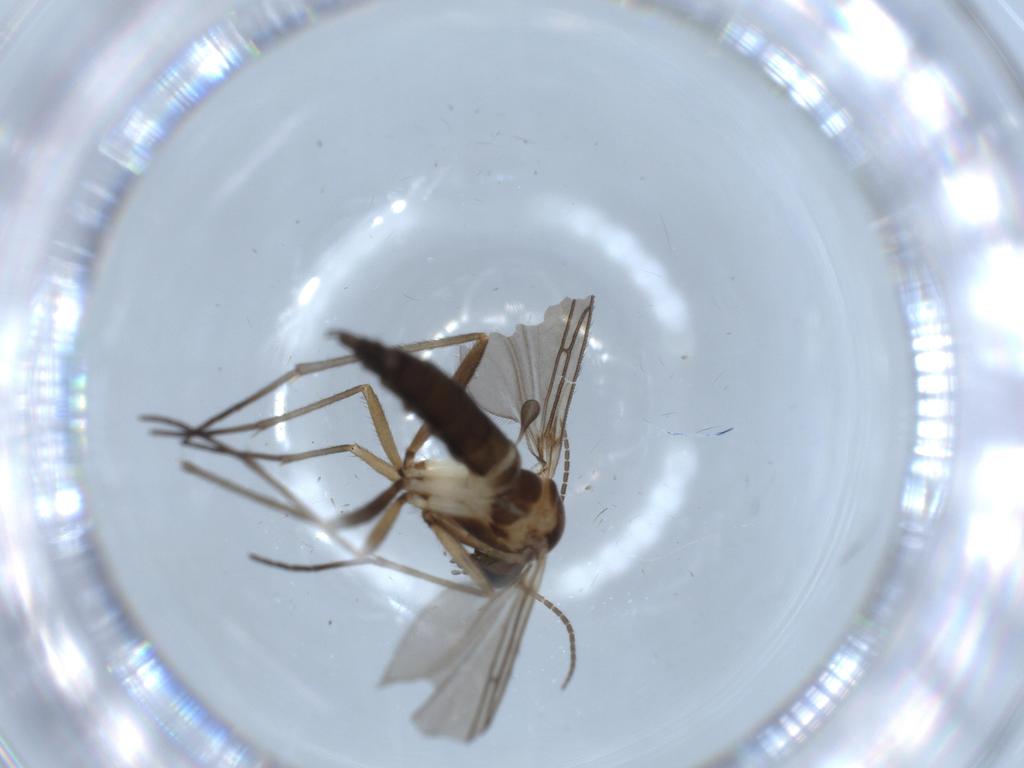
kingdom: Animalia
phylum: Arthropoda
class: Insecta
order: Diptera
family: Sciaridae
